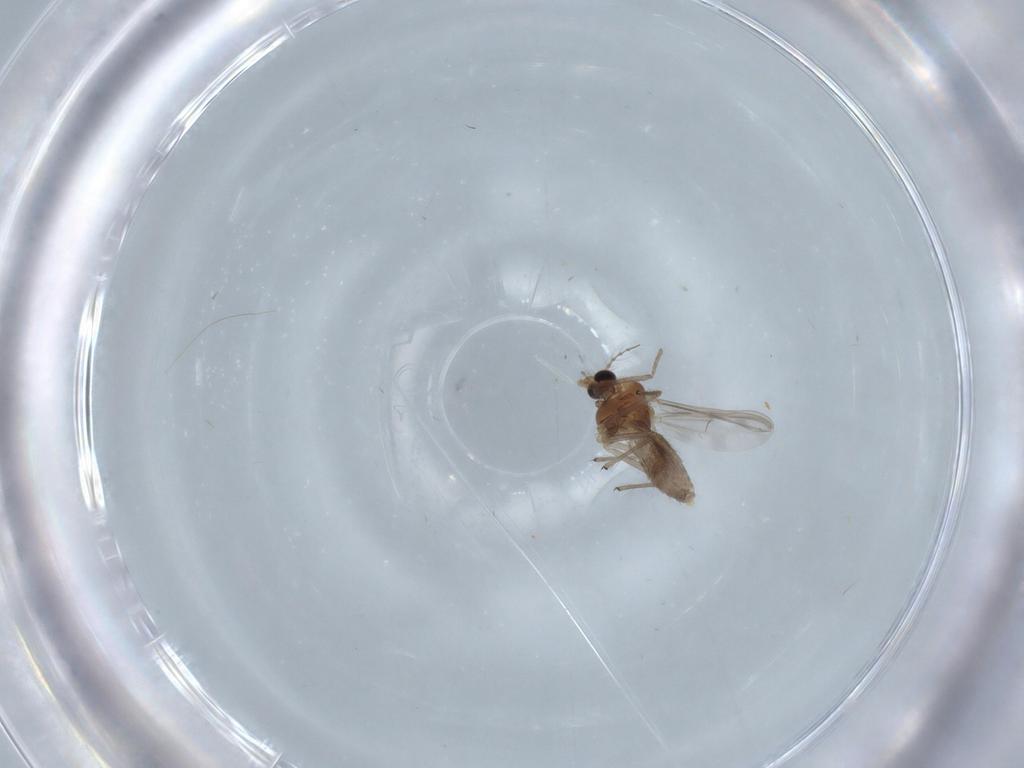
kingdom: Animalia
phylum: Arthropoda
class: Insecta
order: Diptera
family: Chironomidae
